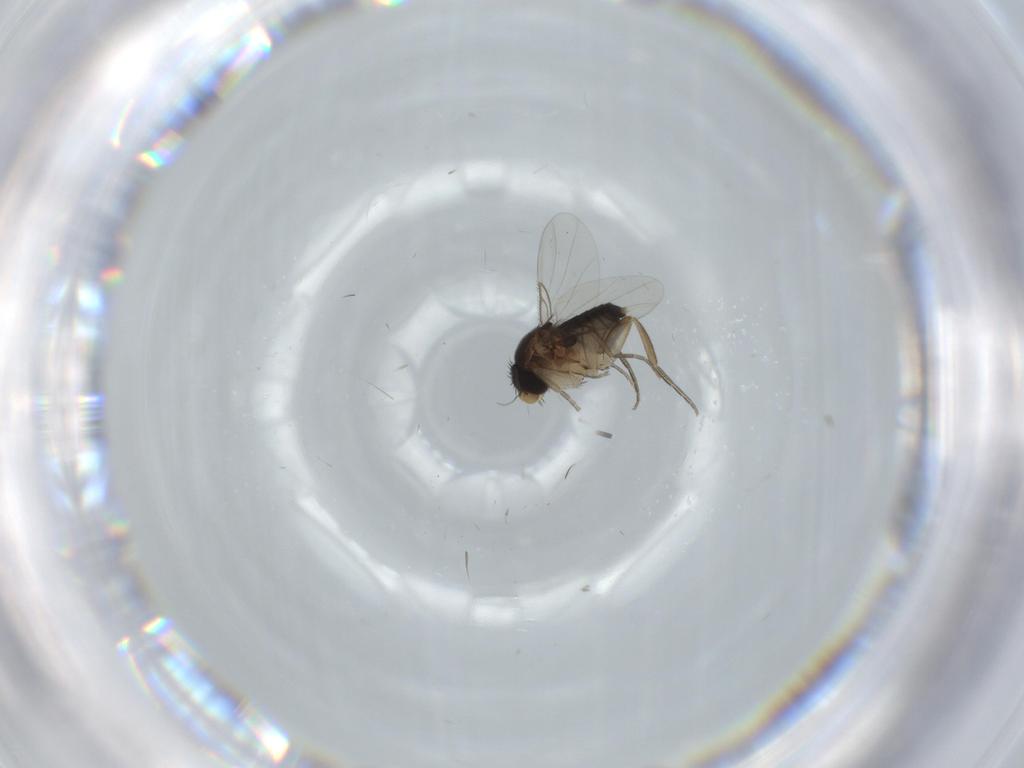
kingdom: Animalia
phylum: Arthropoda
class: Insecta
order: Diptera
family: Phoridae
